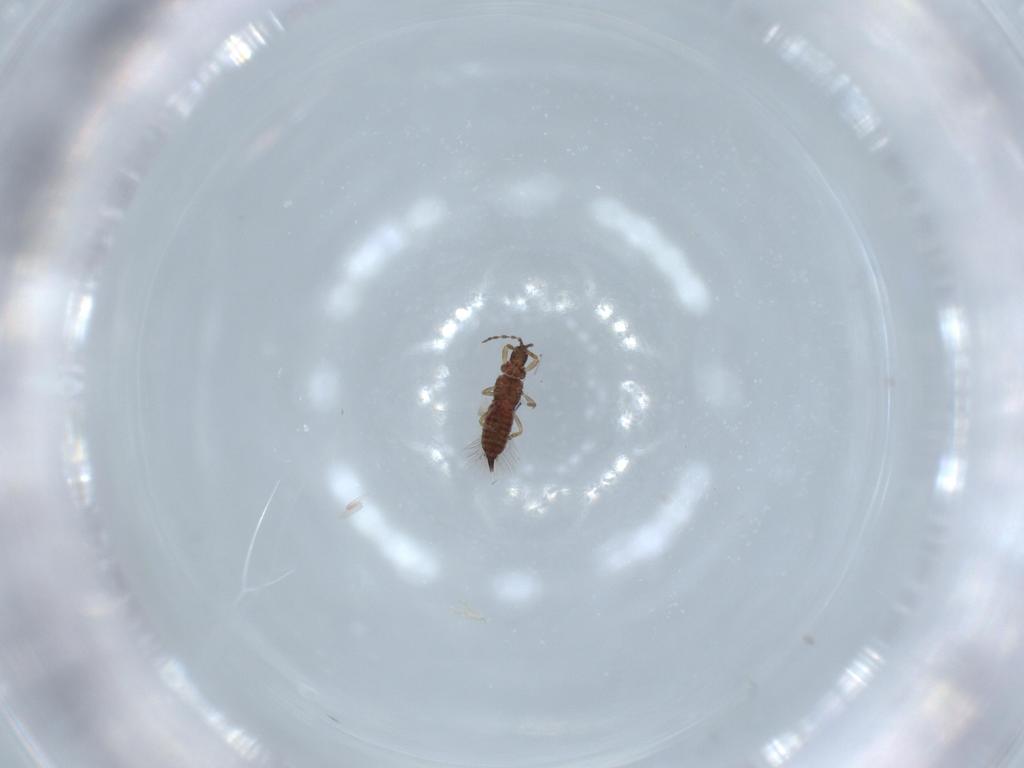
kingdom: Animalia
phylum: Arthropoda
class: Insecta
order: Thysanoptera
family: Phlaeothripidae
